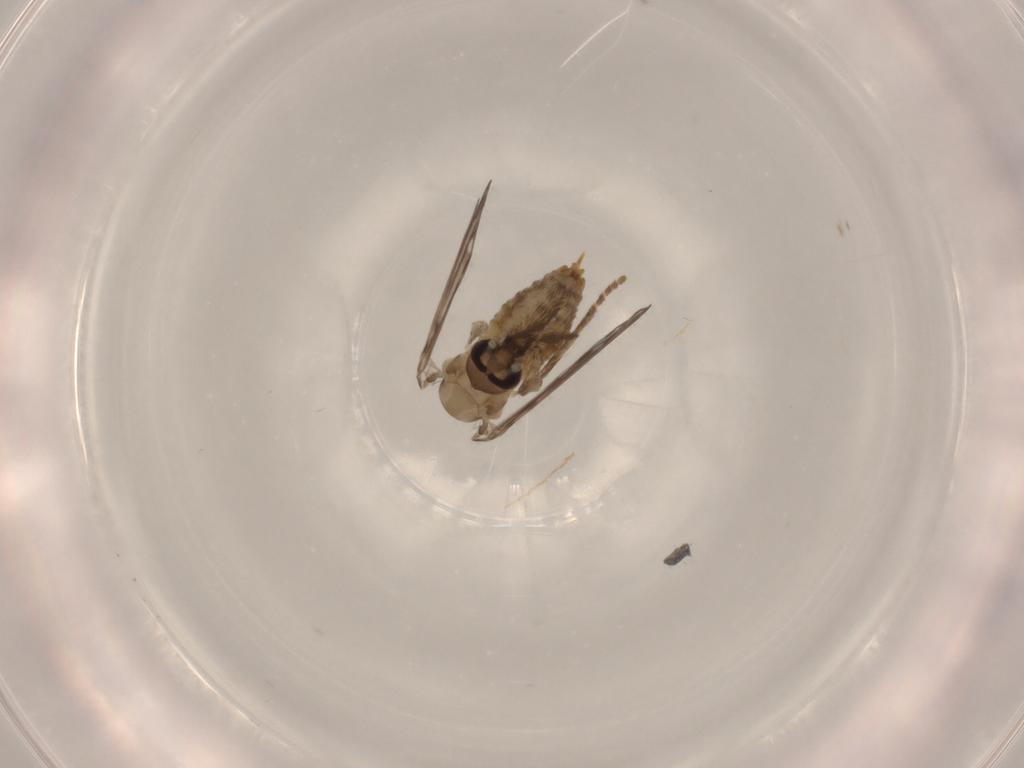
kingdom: Animalia
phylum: Arthropoda
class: Insecta
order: Diptera
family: Psychodidae
